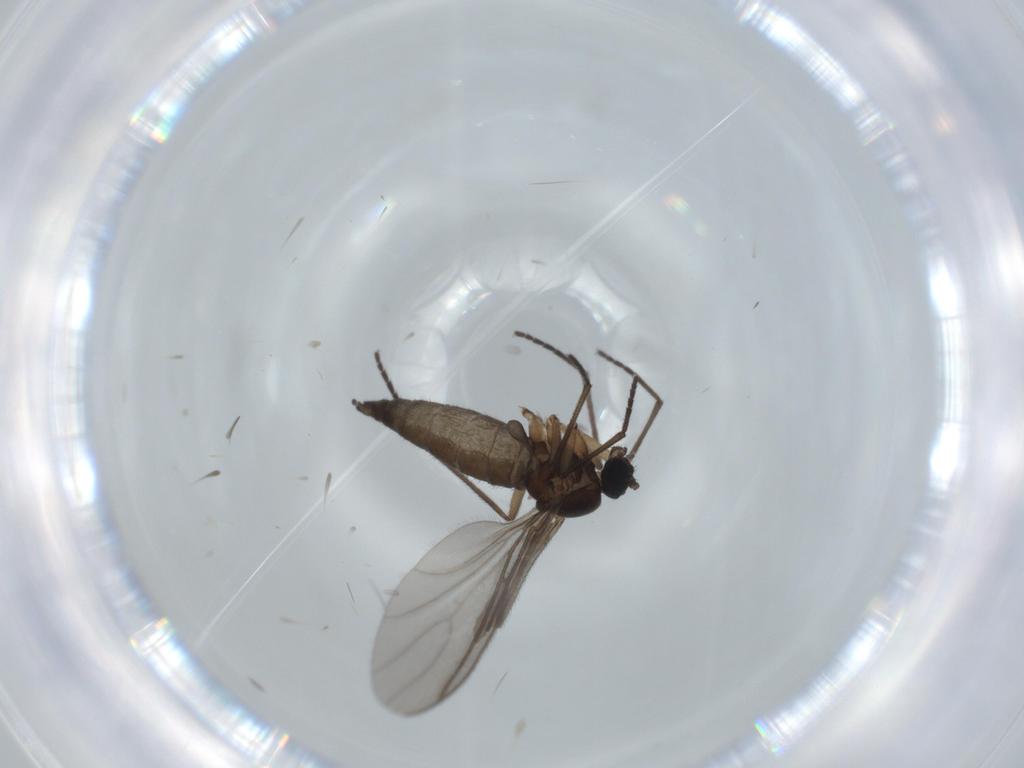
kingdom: Animalia
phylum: Arthropoda
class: Insecta
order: Diptera
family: Sciaridae
